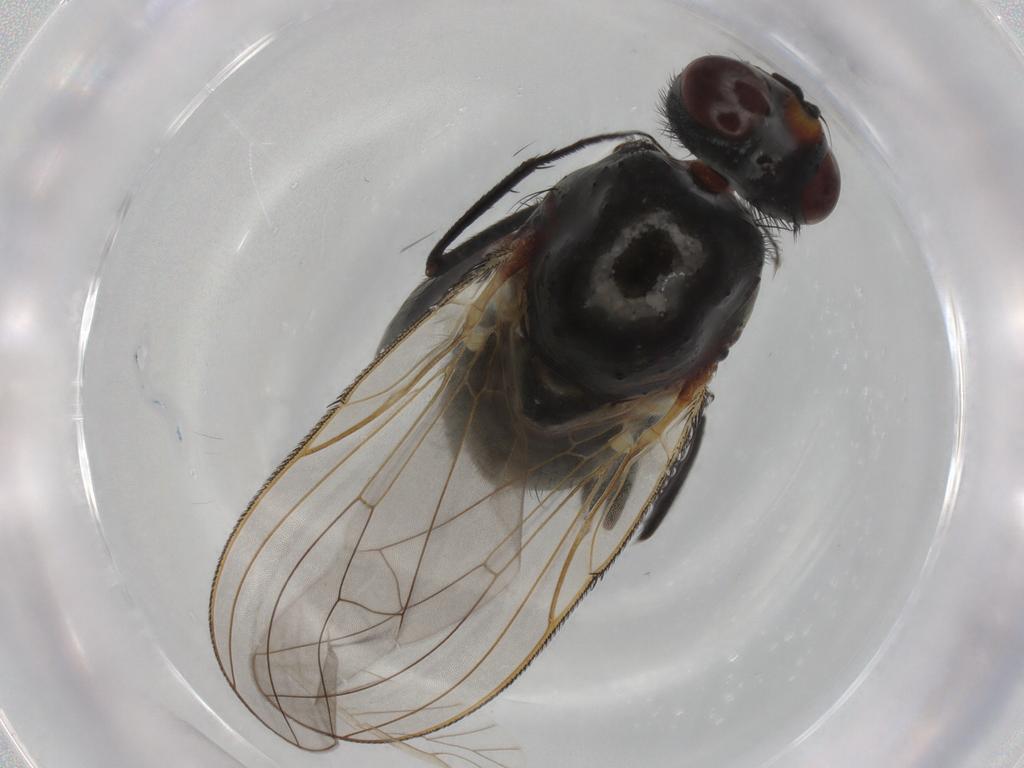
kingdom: Animalia
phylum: Arthropoda
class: Insecta
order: Diptera
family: Chironomidae
